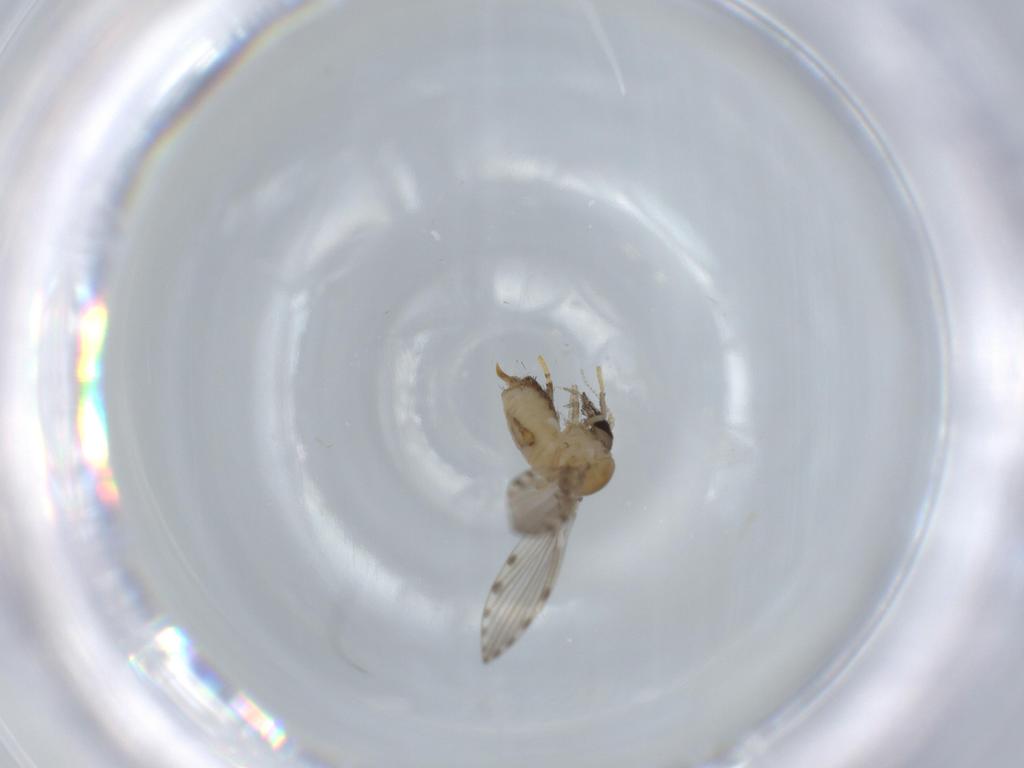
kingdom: Animalia
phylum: Arthropoda
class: Insecta
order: Diptera
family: Psychodidae
